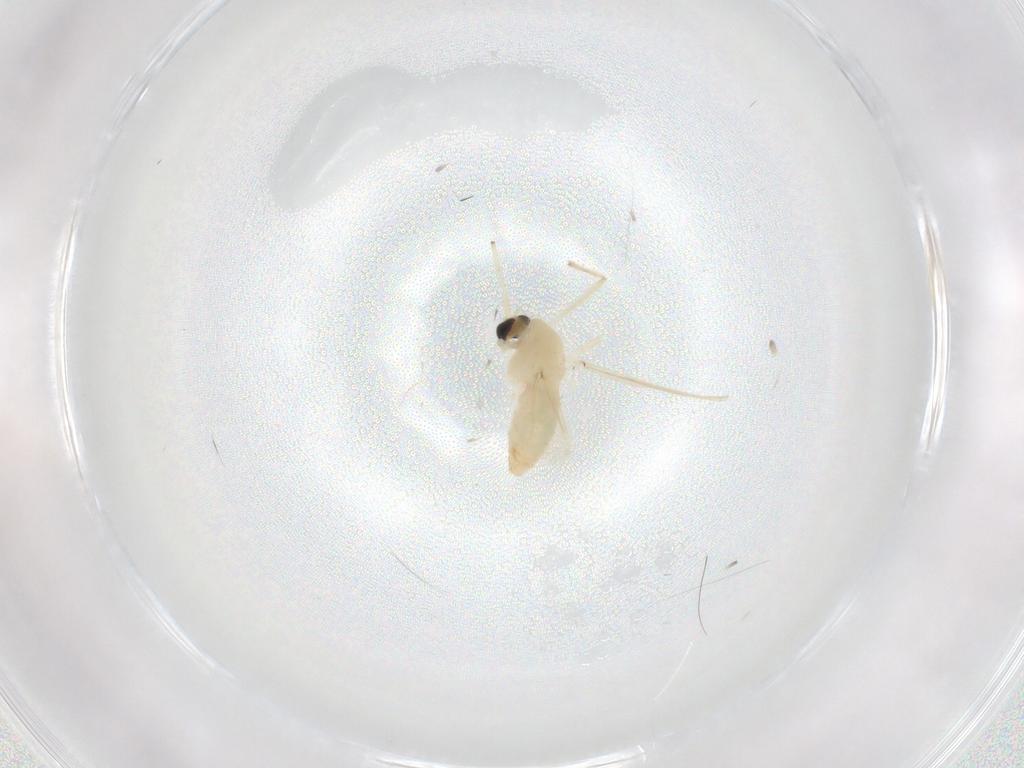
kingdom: Animalia
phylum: Arthropoda
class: Insecta
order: Diptera
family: Chironomidae
